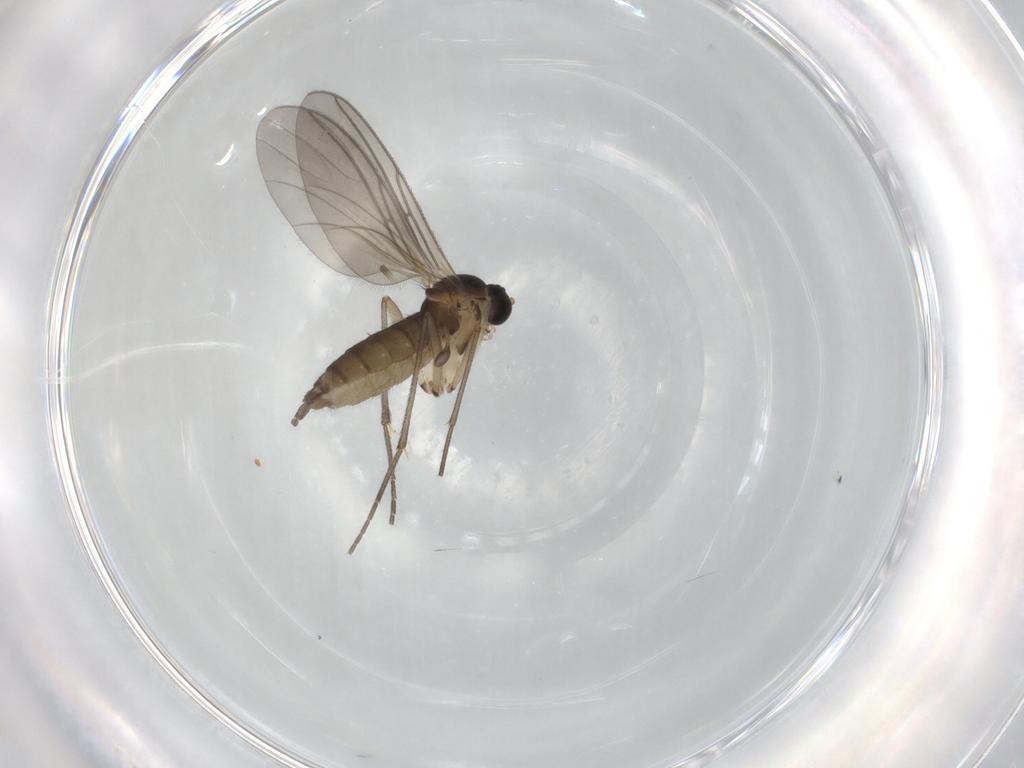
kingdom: Animalia
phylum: Arthropoda
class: Insecta
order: Diptera
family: Sciaridae
